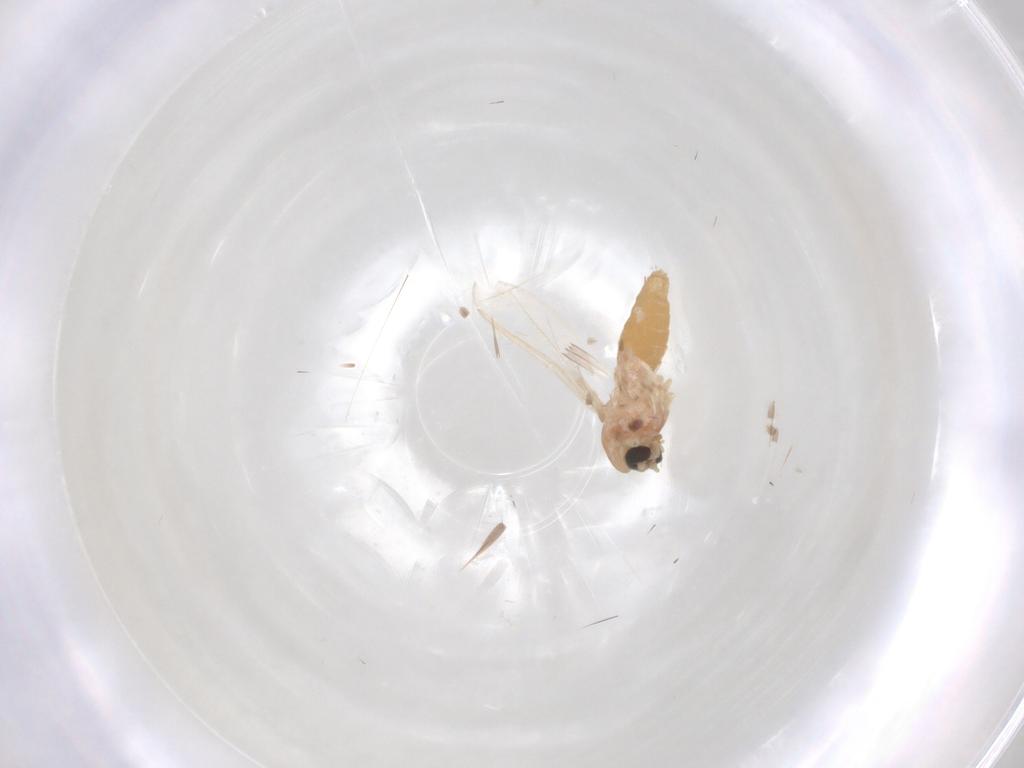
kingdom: Animalia
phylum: Arthropoda
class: Insecta
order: Diptera
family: Chironomidae
